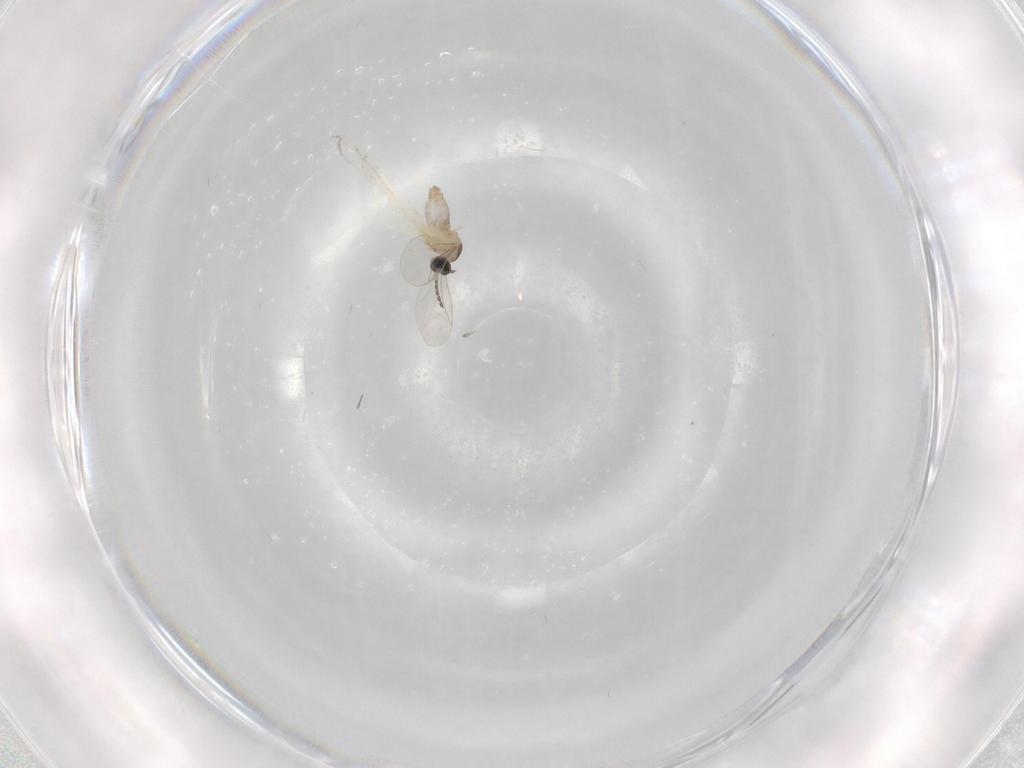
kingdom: Animalia
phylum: Arthropoda
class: Insecta
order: Diptera
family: Cecidomyiidae
